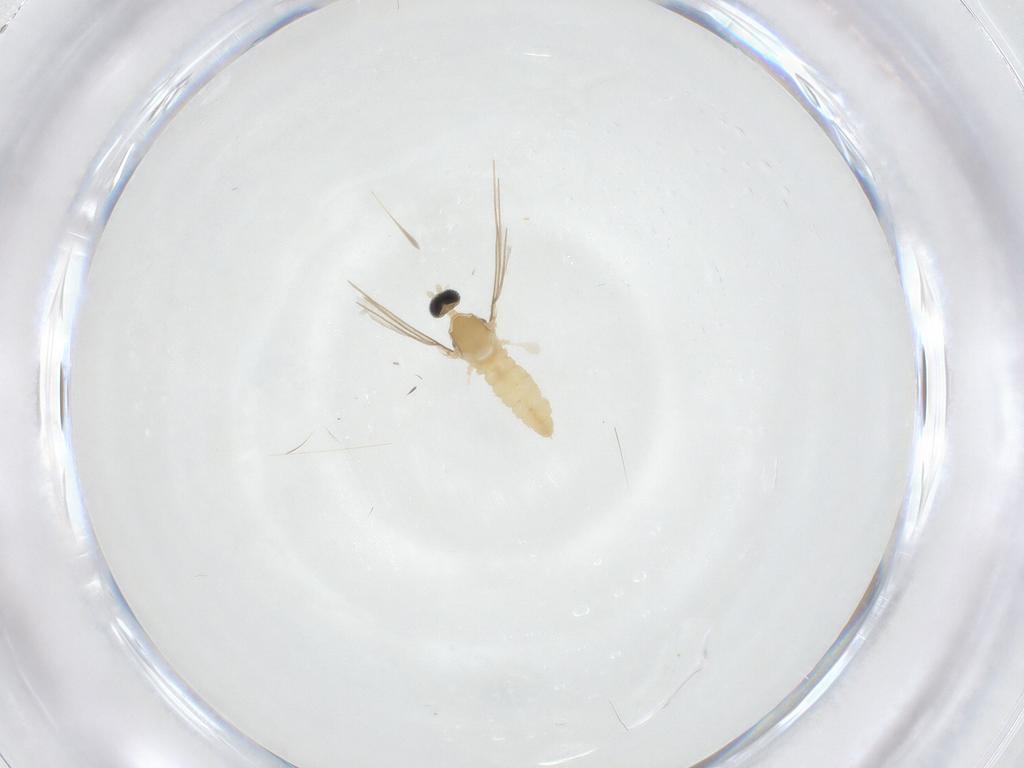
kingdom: Animalia
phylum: Arthropoda
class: Insecta
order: Diptera
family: Cecidomyiidae
